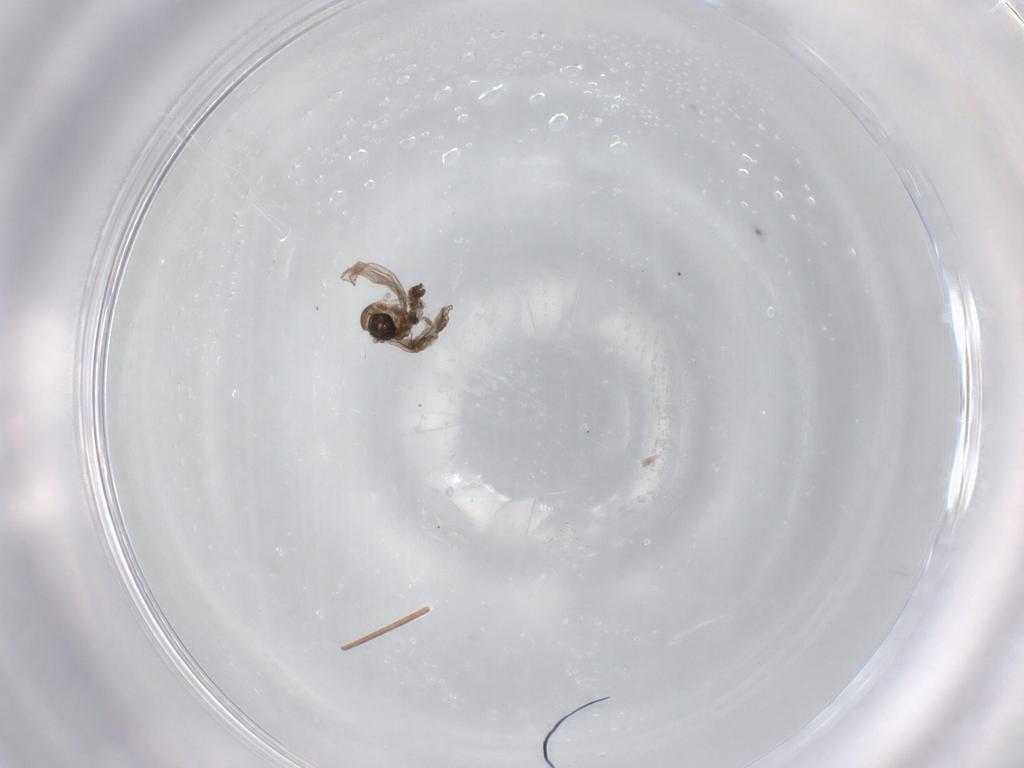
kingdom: Animalia
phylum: Arthropoda
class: Insecta
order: Diptera
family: Psychodidae
